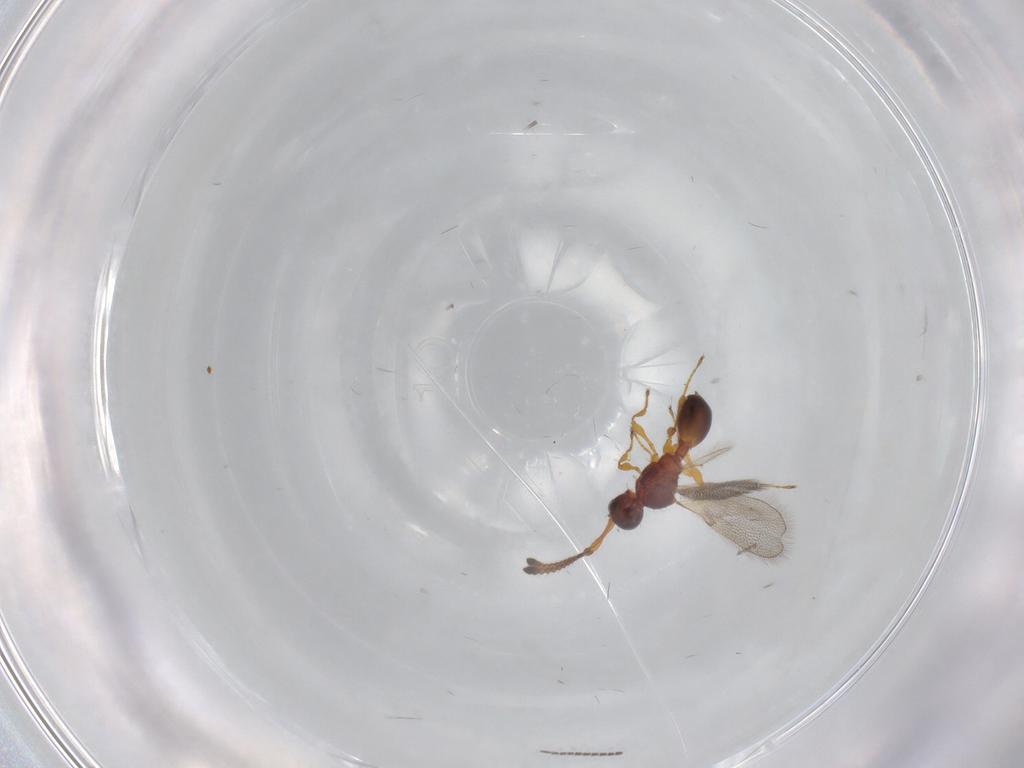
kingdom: Animalia
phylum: Arthropoda
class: Insecta
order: Hymenoptera
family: Diapriidae
